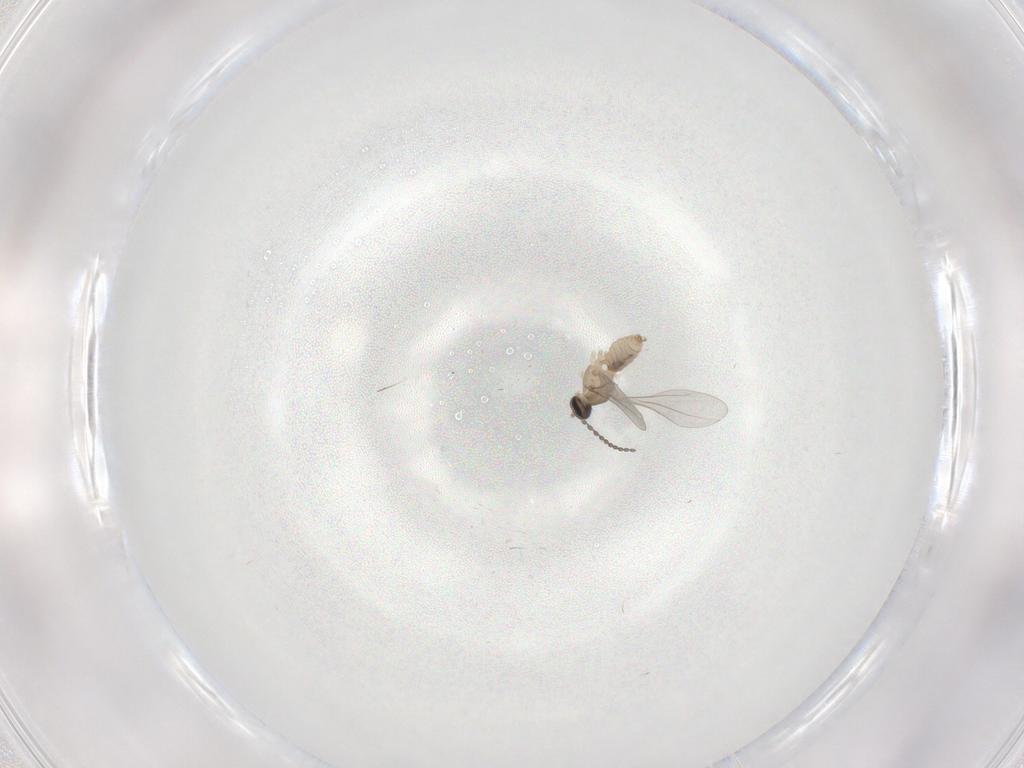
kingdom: Animalia
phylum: Arthropoda
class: Insecta
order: Diptera
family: Cecidomyiidae
